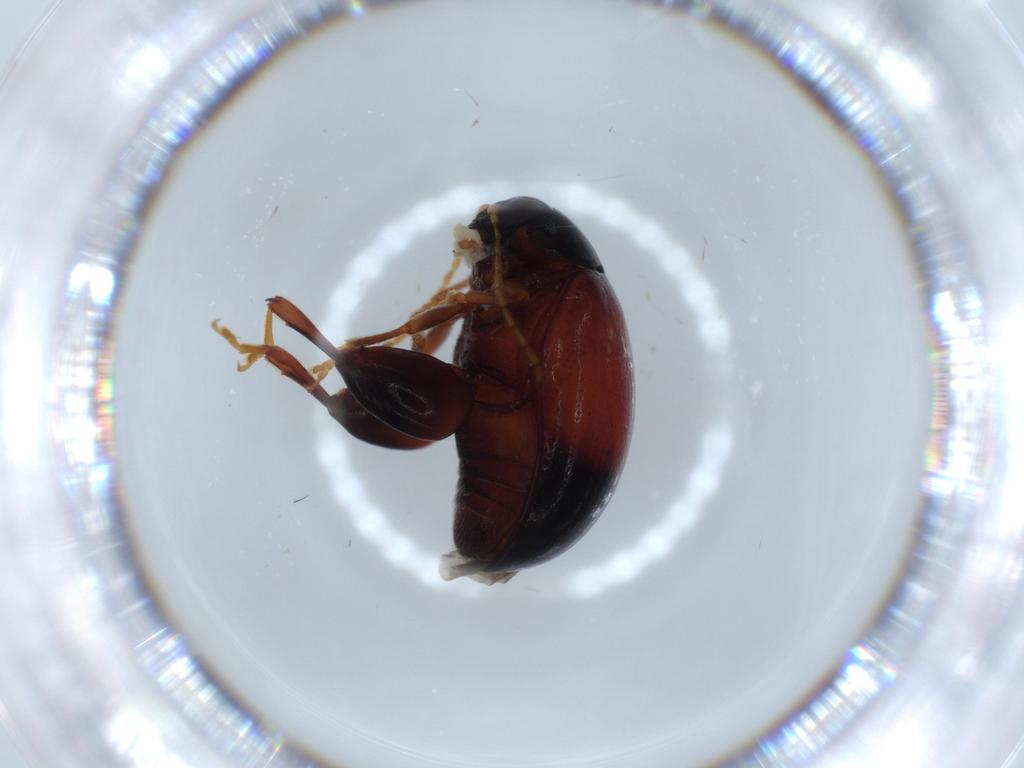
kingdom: Animalia
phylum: Arthropoda
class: Insecta
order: Coleoptera
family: Dermestidae
